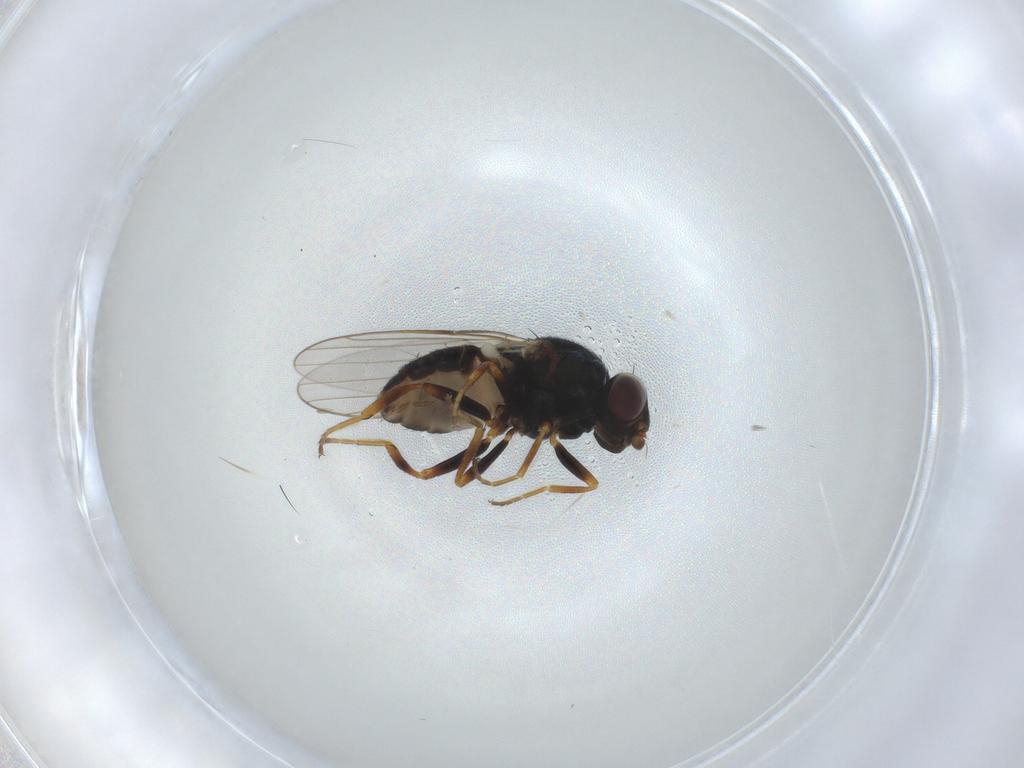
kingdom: Animalia
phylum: Arthropoda
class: Insecta
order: Diptera
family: Chloropidae
